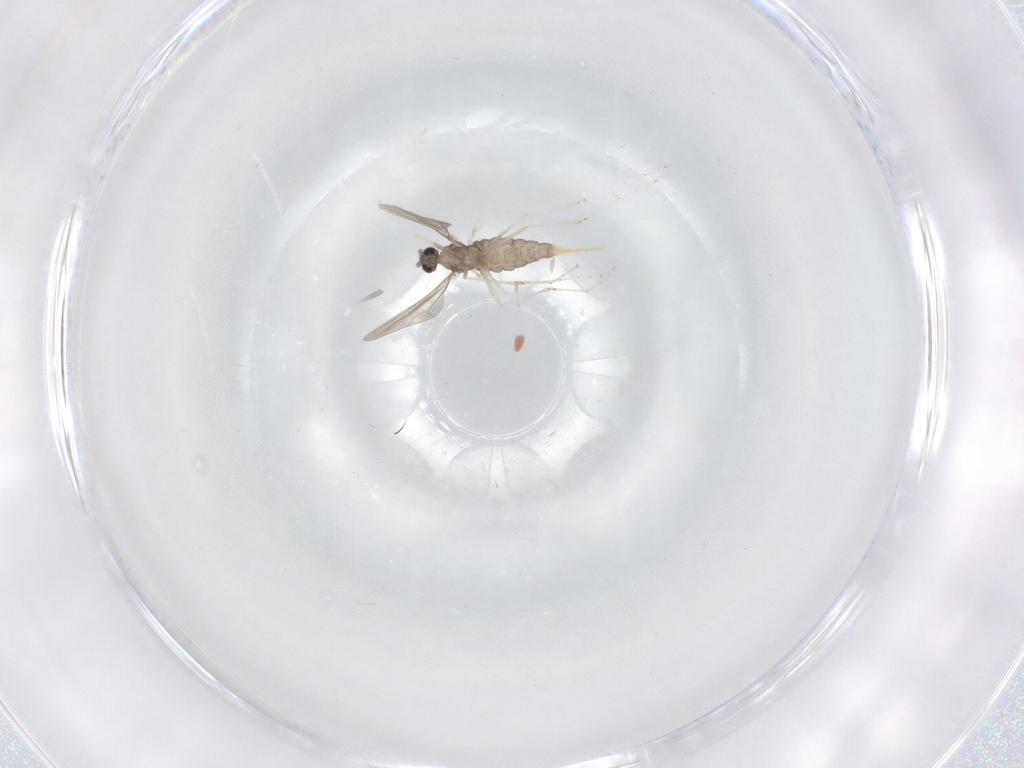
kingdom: Animalia
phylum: Arthropoda
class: Insecta
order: Diptera
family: Cecidomyiidae
